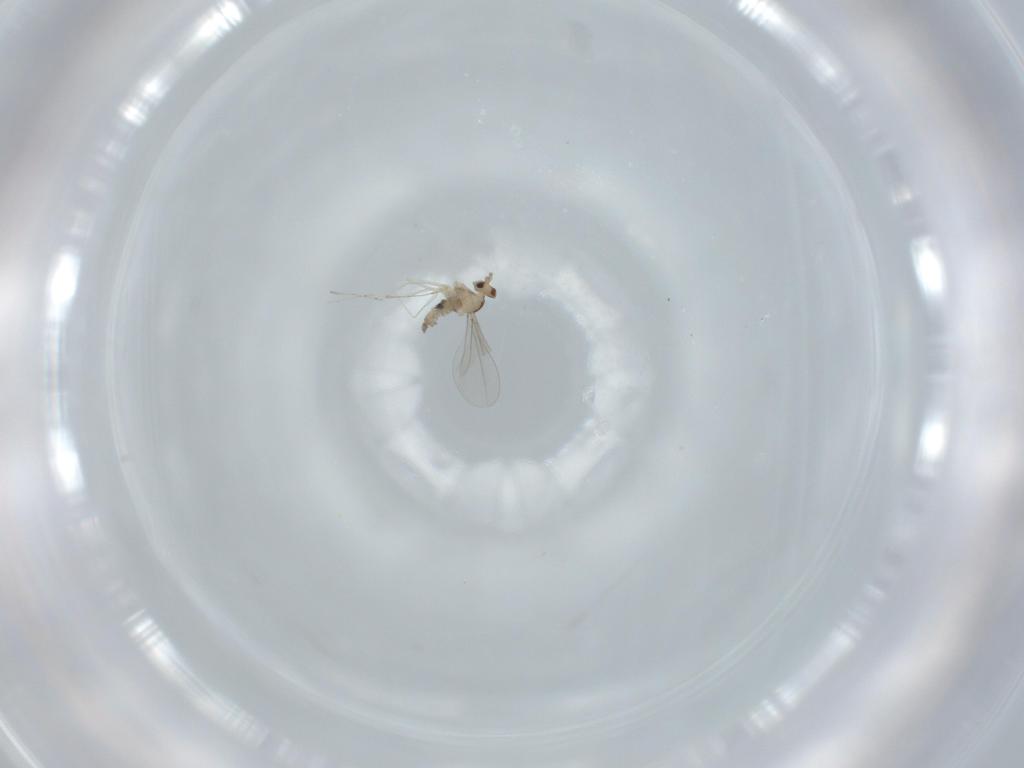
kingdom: Animalia
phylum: Arthropoda
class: Insecta
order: Diptera
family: Cecidomyiidae
